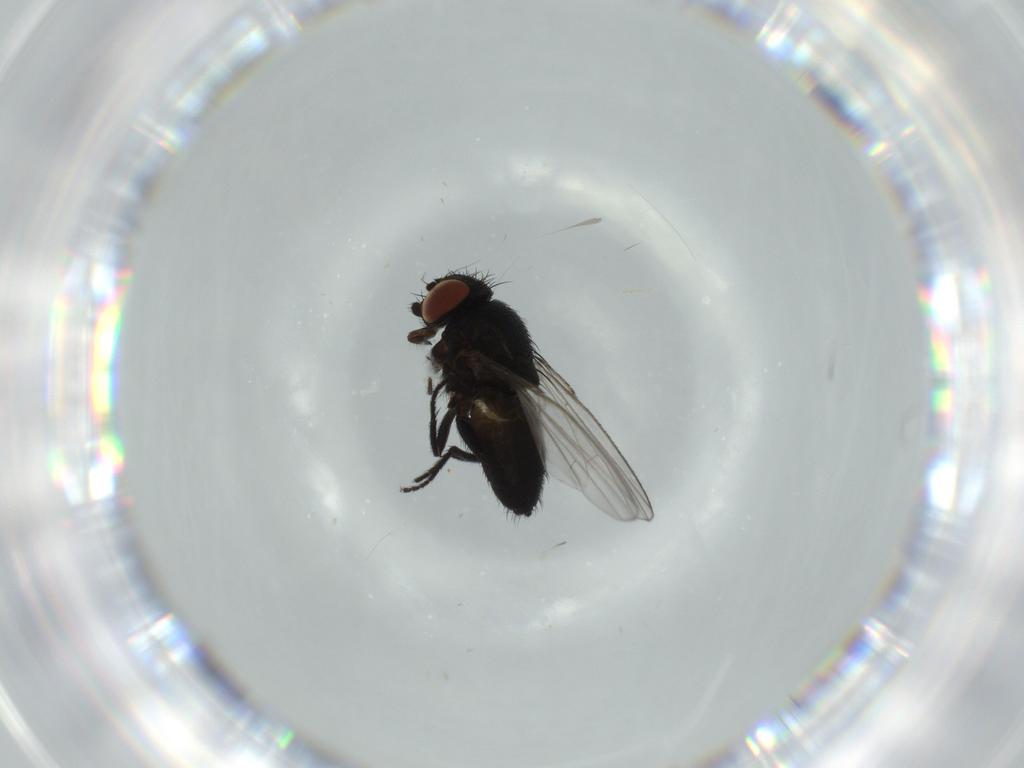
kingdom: Animalia
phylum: Arthropoda
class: Insecta
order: Diptera
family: Milichiidae
